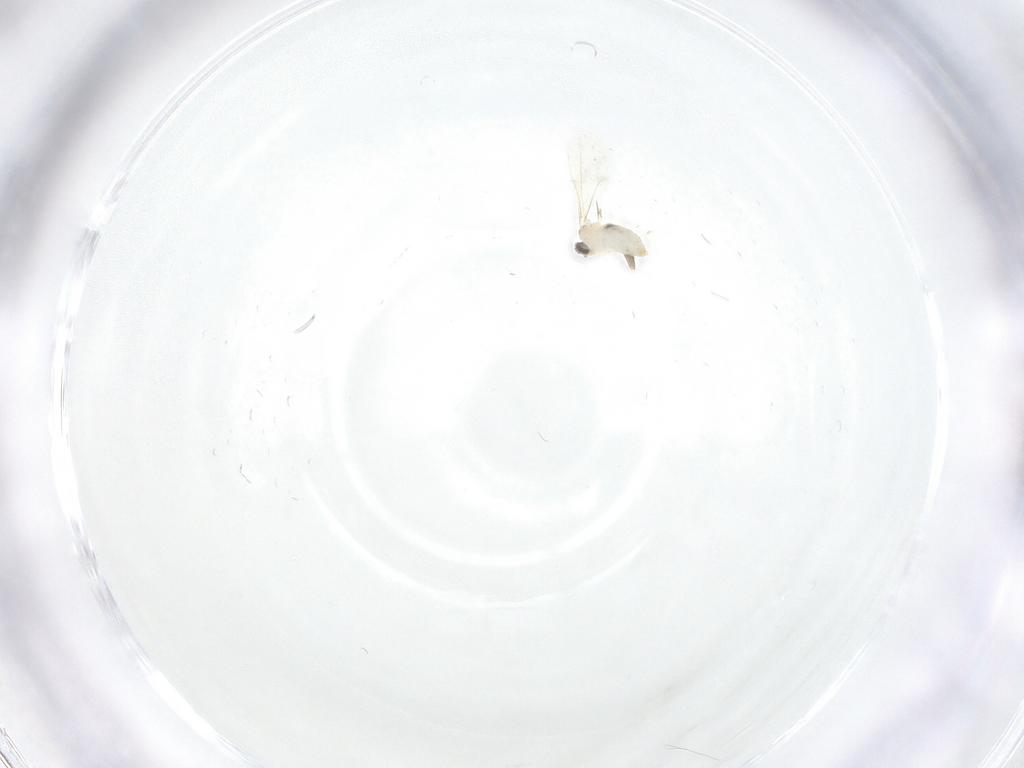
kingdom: Animalia
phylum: Arthropoda
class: Insecta
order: Diptera
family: Cecidomyiidae
